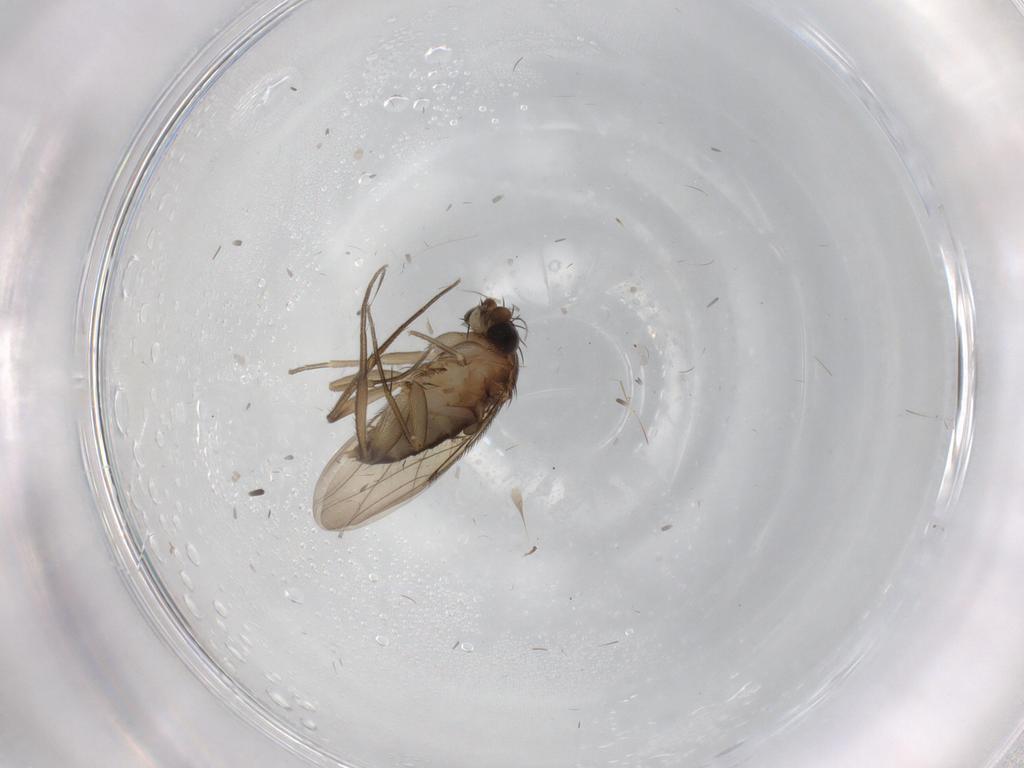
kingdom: Animalia
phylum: Arthropoda
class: Insecta
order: Diptera
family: Phoridae
